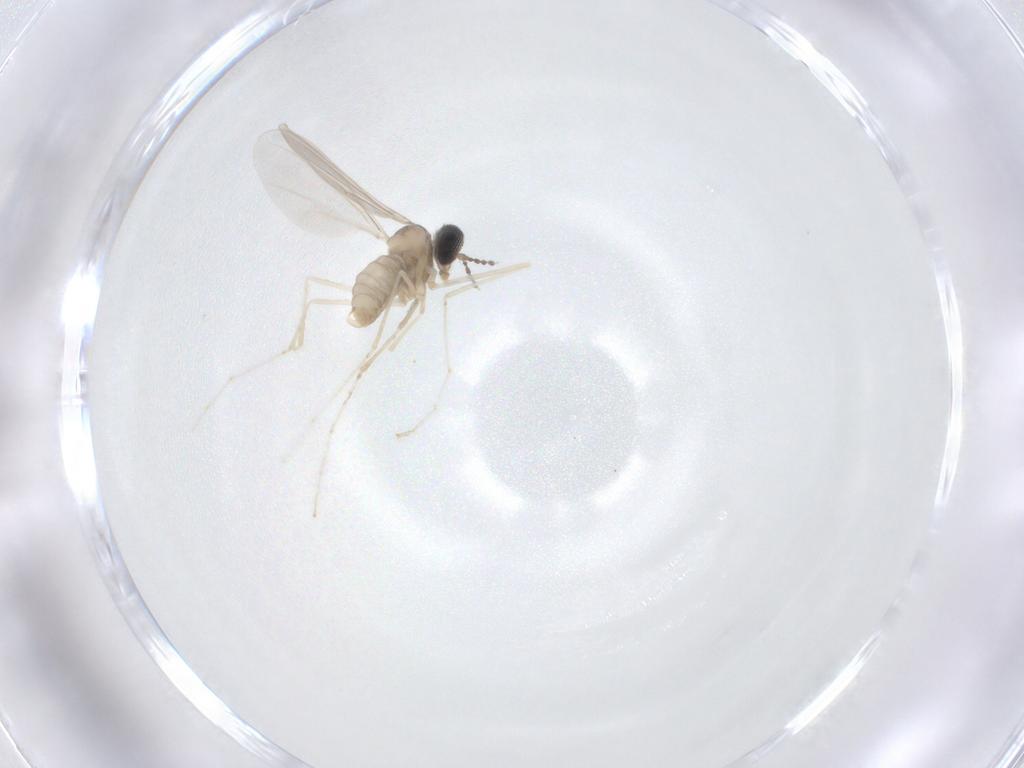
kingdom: Animalia
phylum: Arthropoda
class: Insecta
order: Diptera
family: Cecidomyiidae
